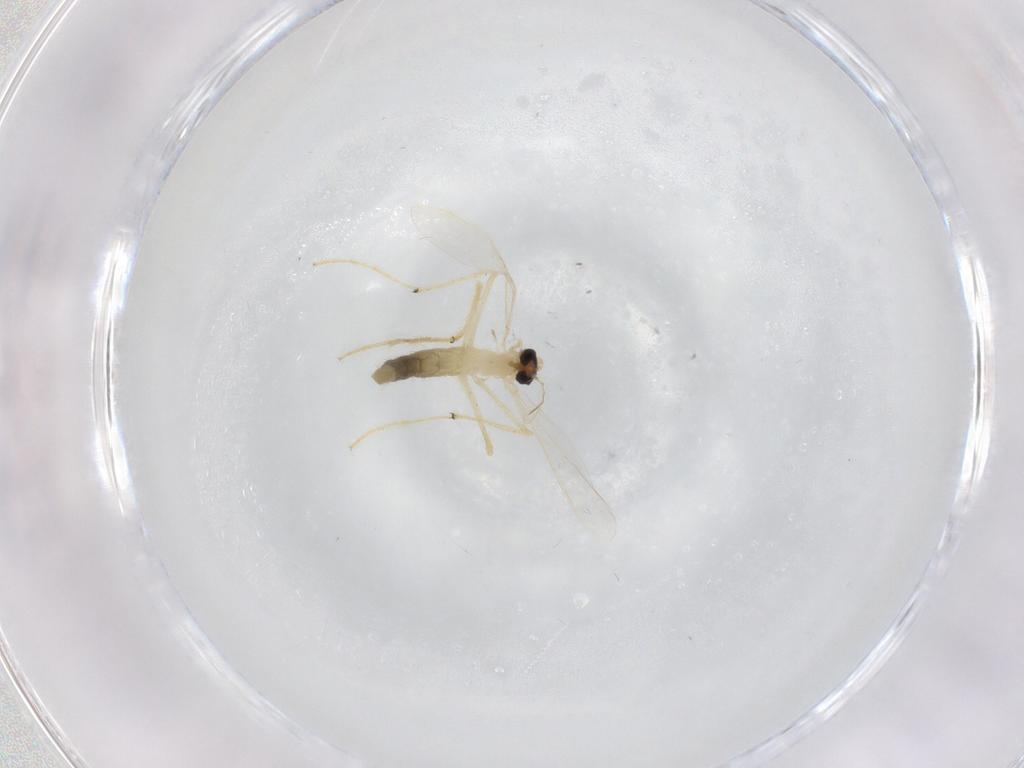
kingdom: Animalia
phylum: Arthropoda
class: Insecta
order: Diptera
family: Chironomidae
